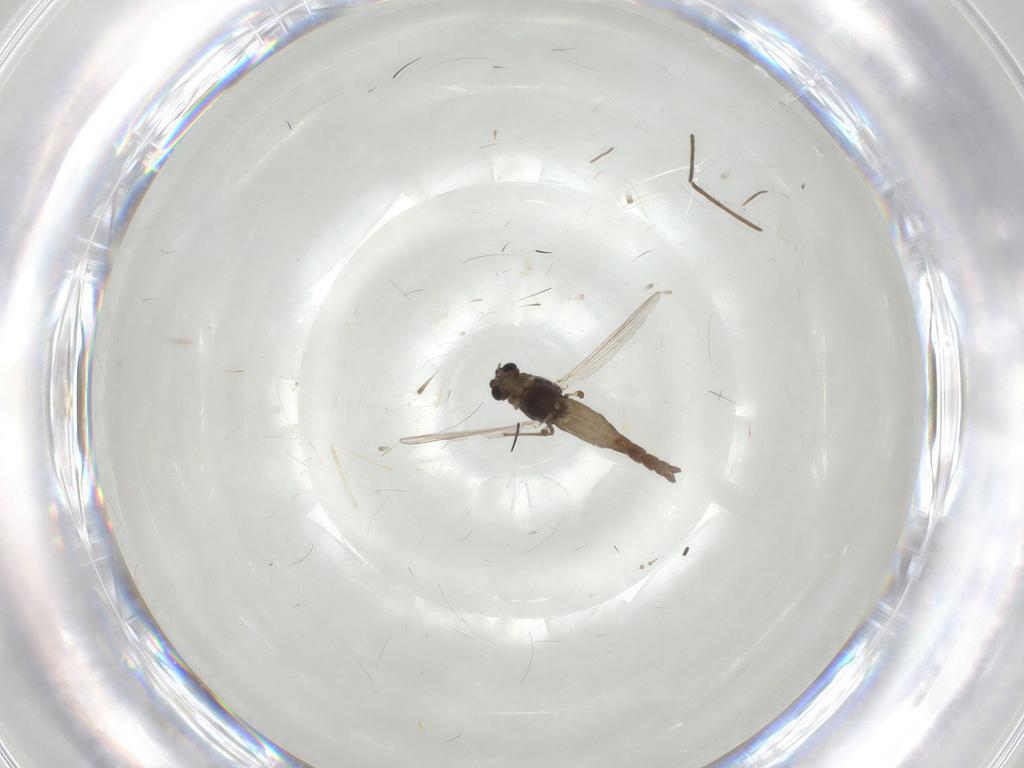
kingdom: Animalia
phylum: Arthropoda
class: Insecta
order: Diptera
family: Chironomidae
